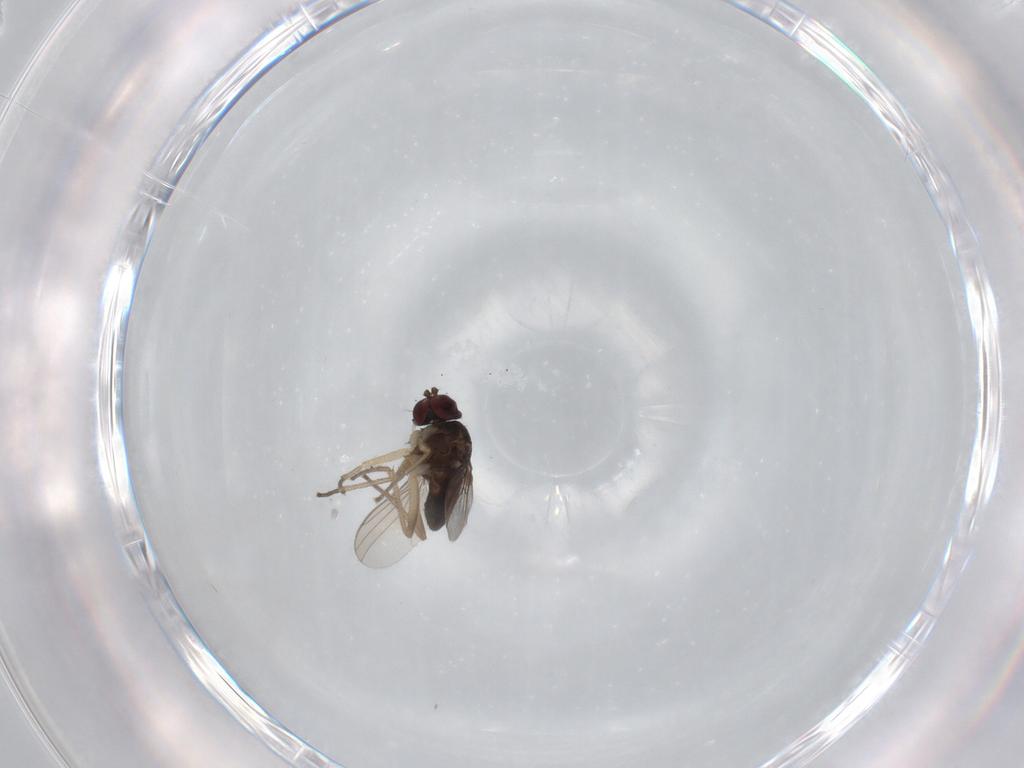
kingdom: Animalia
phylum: Arthropoda
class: Insecta
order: Diptera
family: Dolichopodidae
